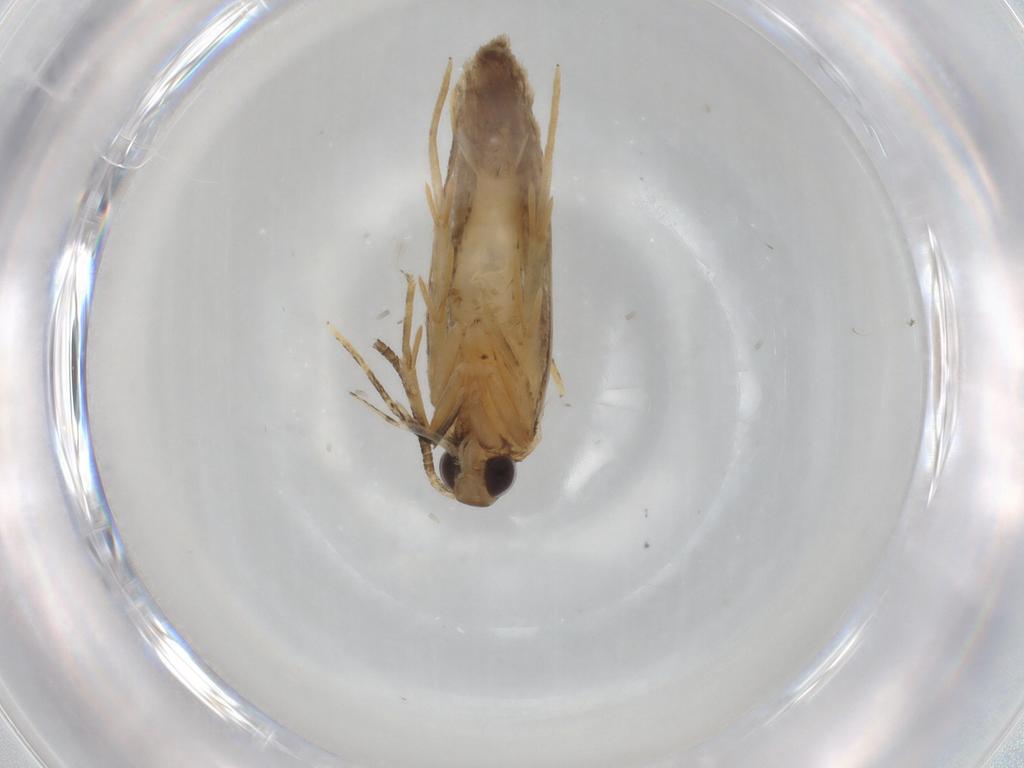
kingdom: Animalia
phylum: Arthropoda
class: Insecta
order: Lepidoptera
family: Autostichidae
